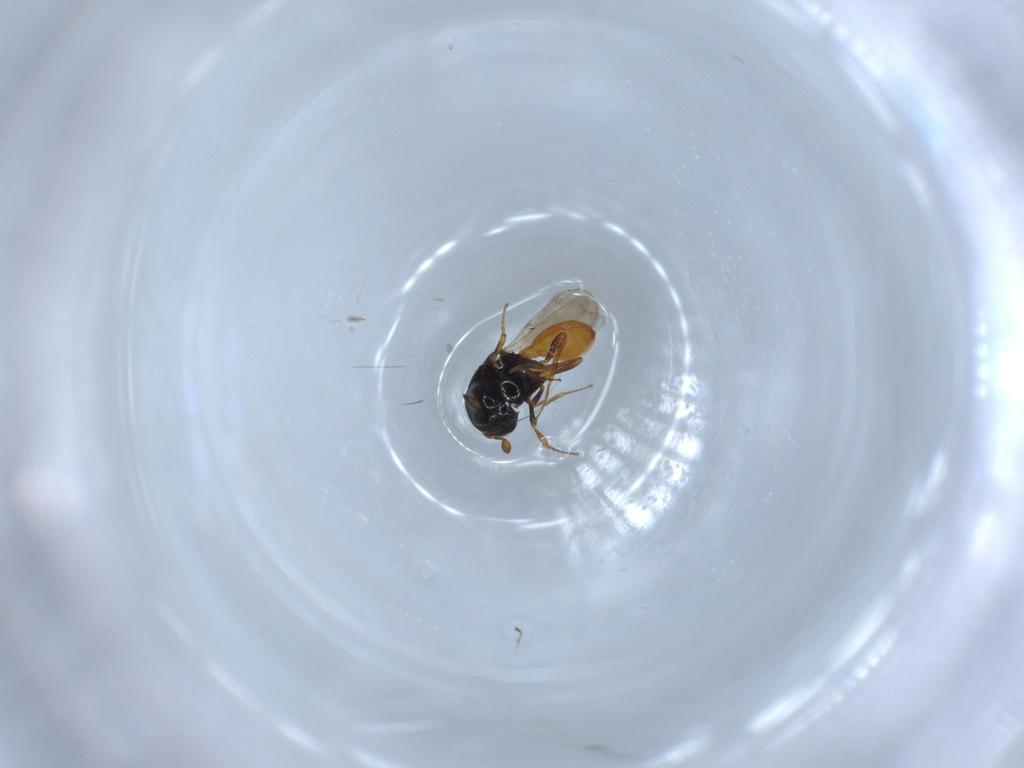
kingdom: Animalia
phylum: Arthropoda
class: Insecta
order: Hymenoptera
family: Scelionidae
